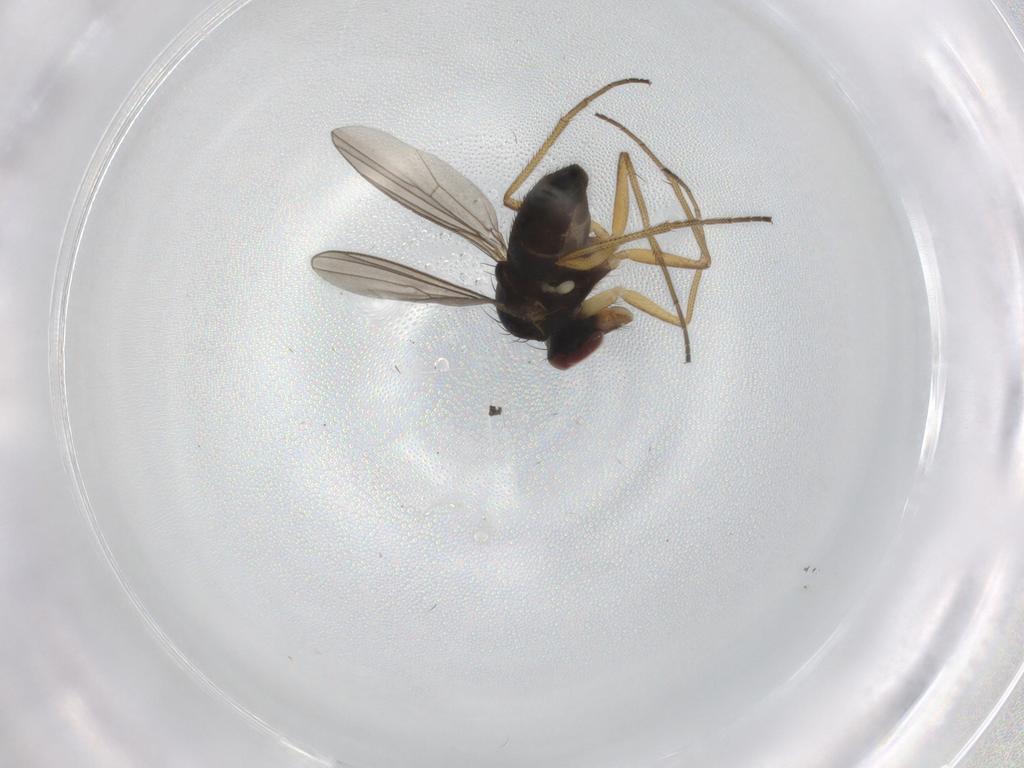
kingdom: Animalia
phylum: Arthropoda
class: Insecta
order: Diptera
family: Dolichopodidae
